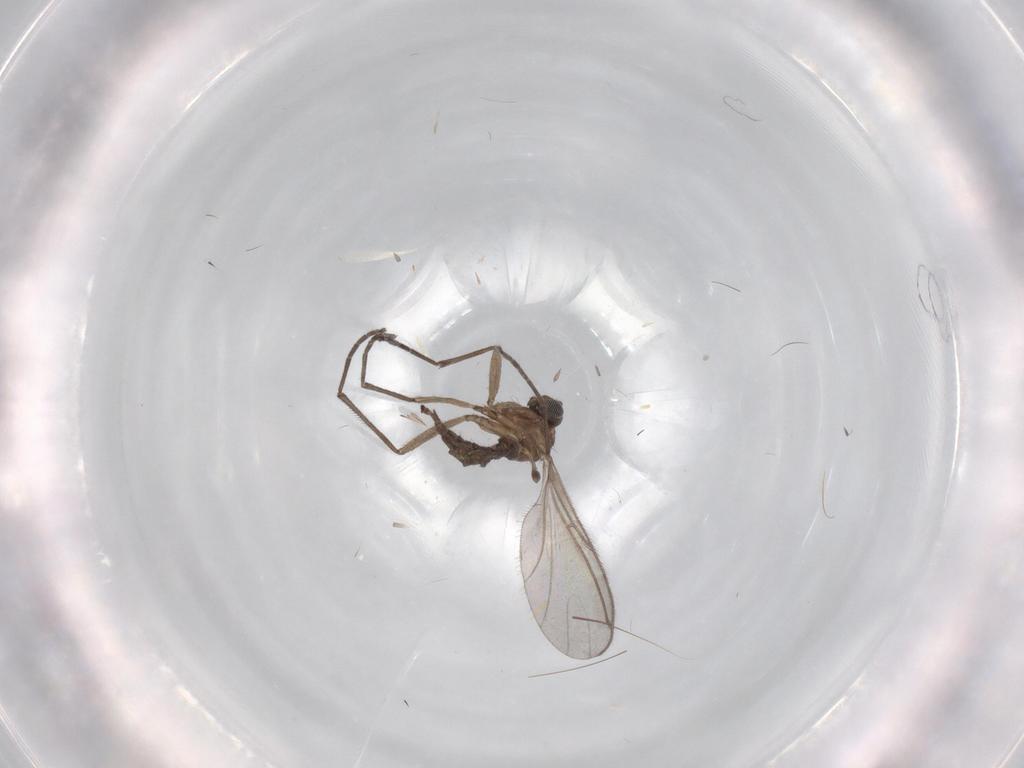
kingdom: Animalia
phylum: Arthropoda
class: Insecta
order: Diptera
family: Sciaridae
